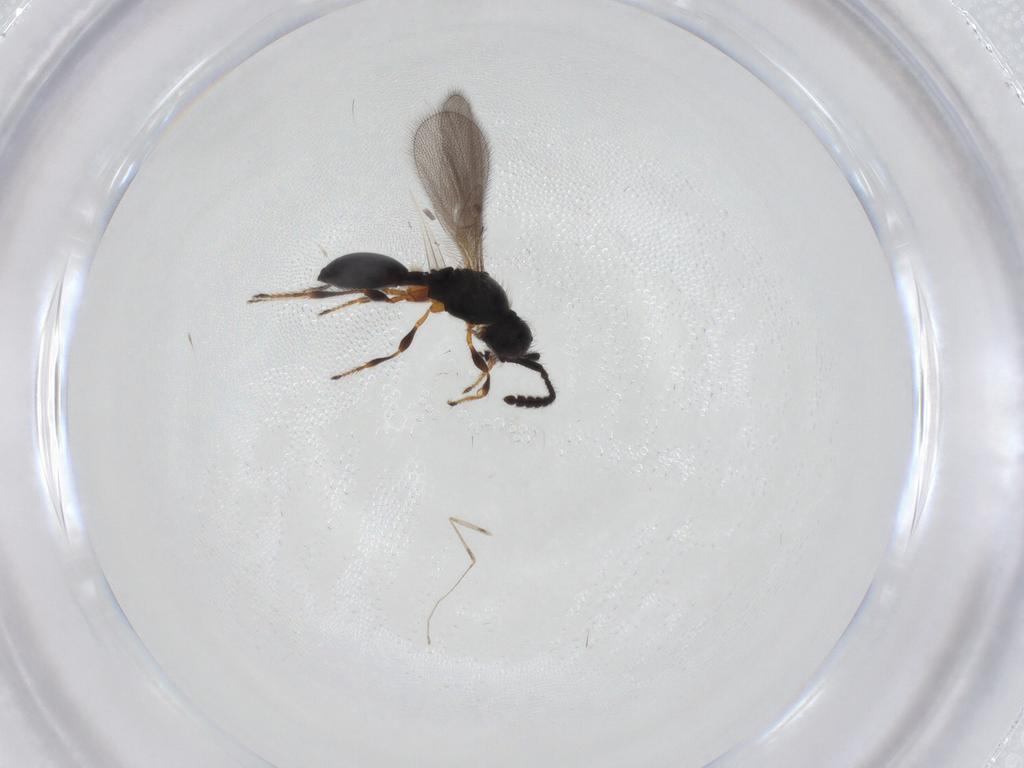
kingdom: Animalia
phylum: Arthropoda
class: Insecta
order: Hymenoptera
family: Diapriidae
